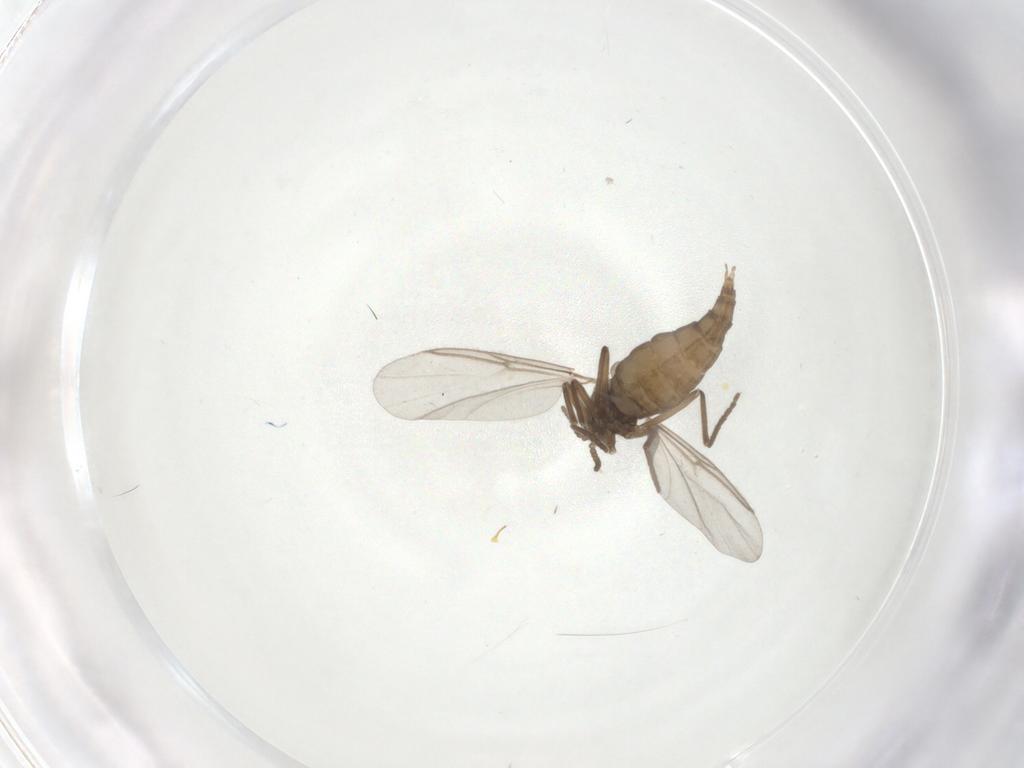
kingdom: Animalia
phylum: Arthropoda
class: Insecta
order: Diptera
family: Cecidomyiidae
